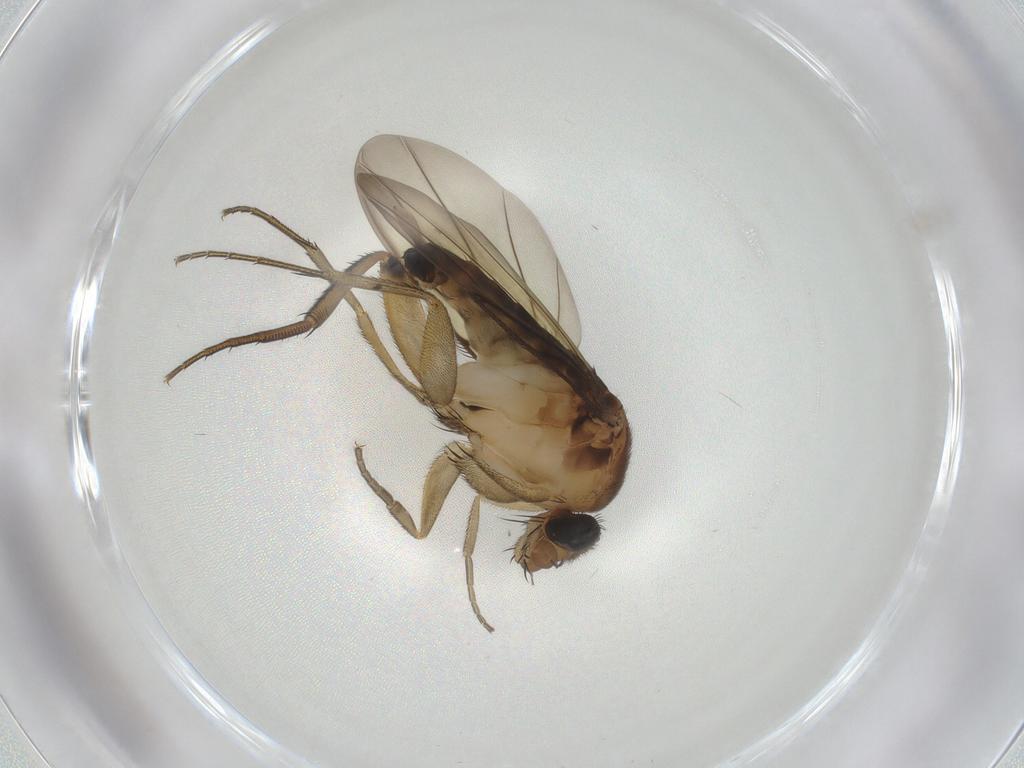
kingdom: Animalia
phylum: Arthropoda
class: Insecta
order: Diptera
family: Phoridae
